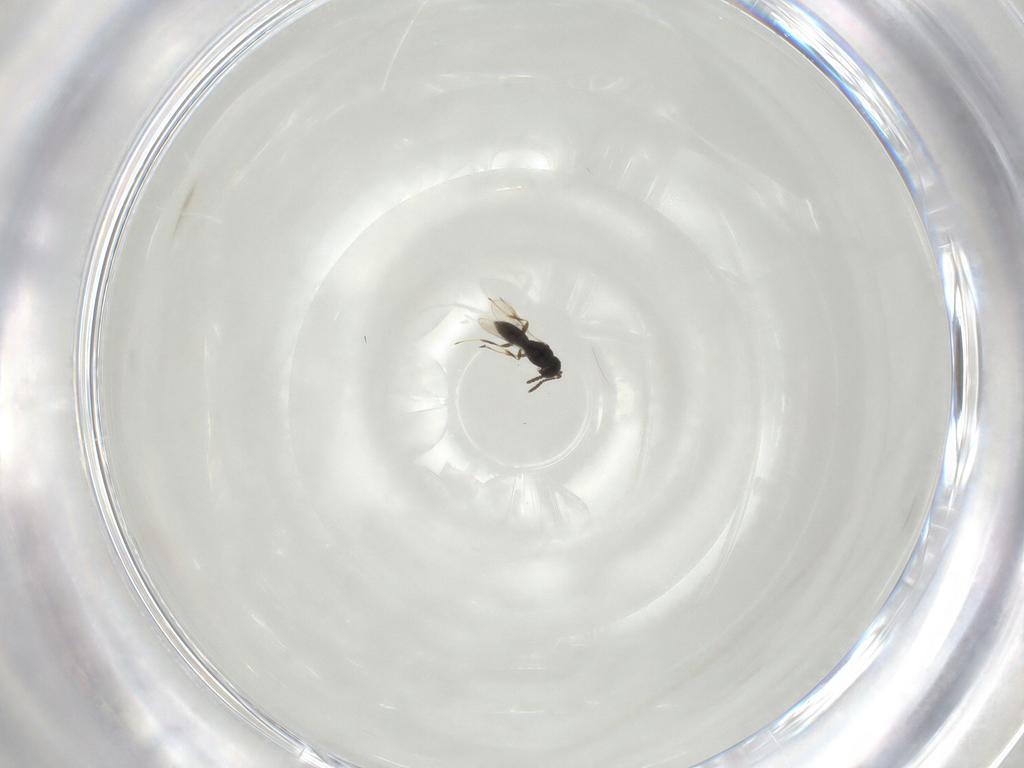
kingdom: Animalia
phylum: Arthropoda
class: Insecta
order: Hymenoptera
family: Scelionidae
